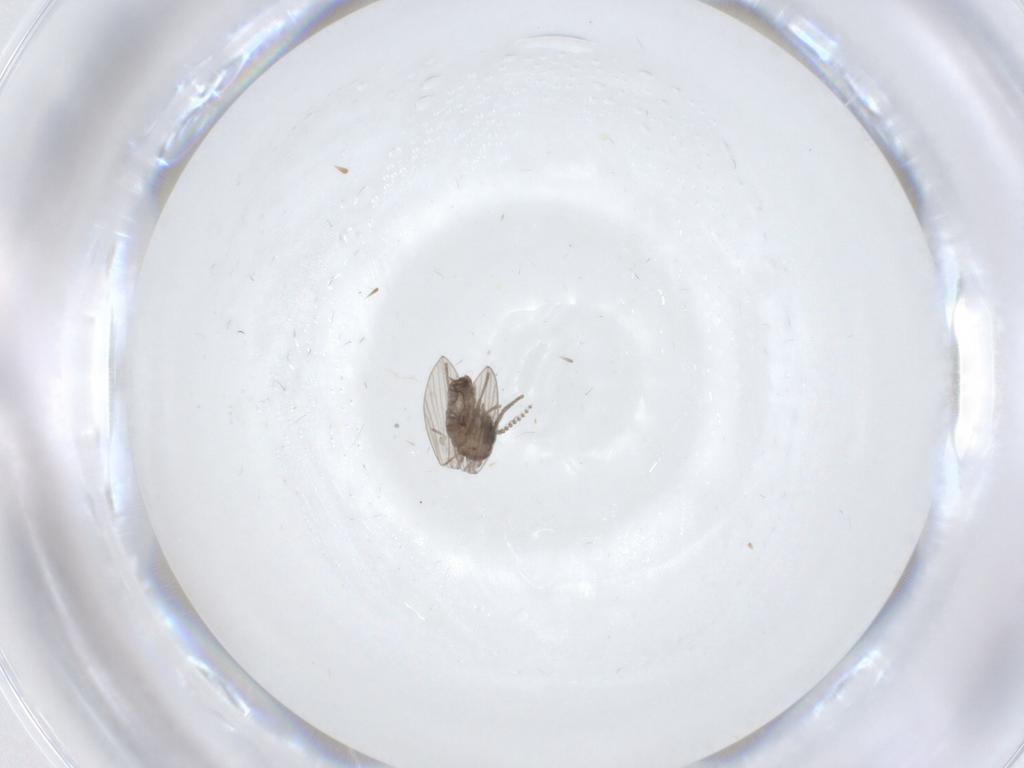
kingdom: Animalia
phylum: Arthropoda
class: Insecta
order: Diptera
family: Psychodidae
